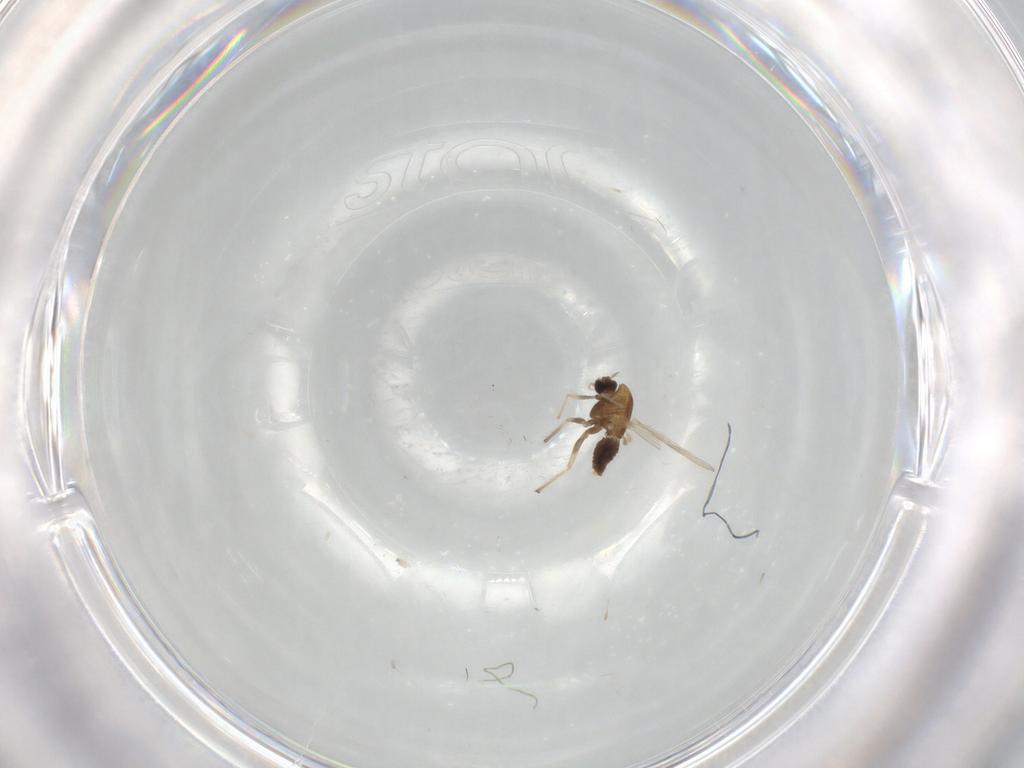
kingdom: Animalia
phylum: Arthropoda
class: Insecta
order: Diptera
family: Chironomidae
